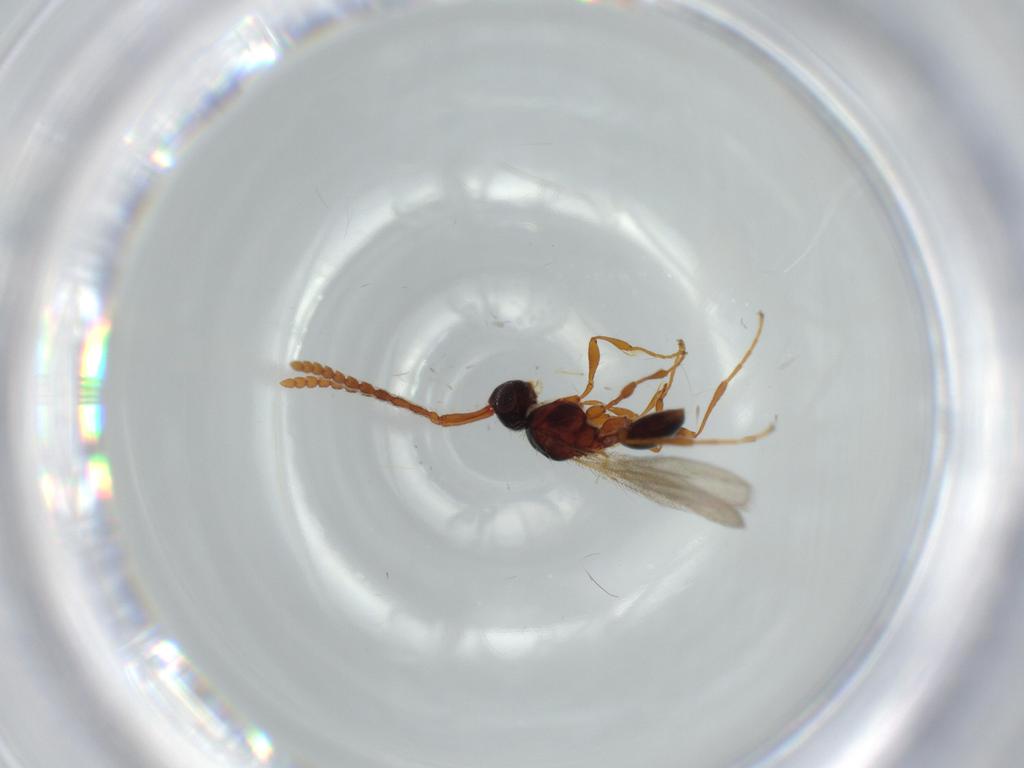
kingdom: Animalia
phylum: Arthropoda
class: Insecta
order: Hymenoptera
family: Diapriidae
